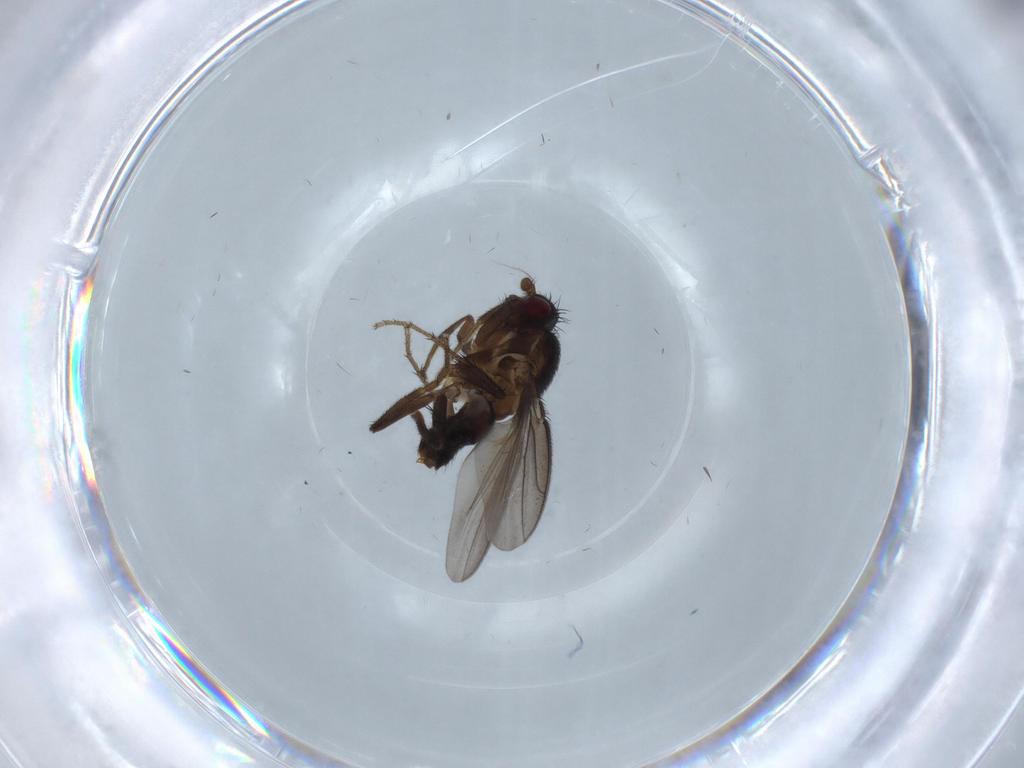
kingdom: Animalia
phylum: Arthropoda
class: Insecta
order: Diptera
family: Sphaeroceridae
